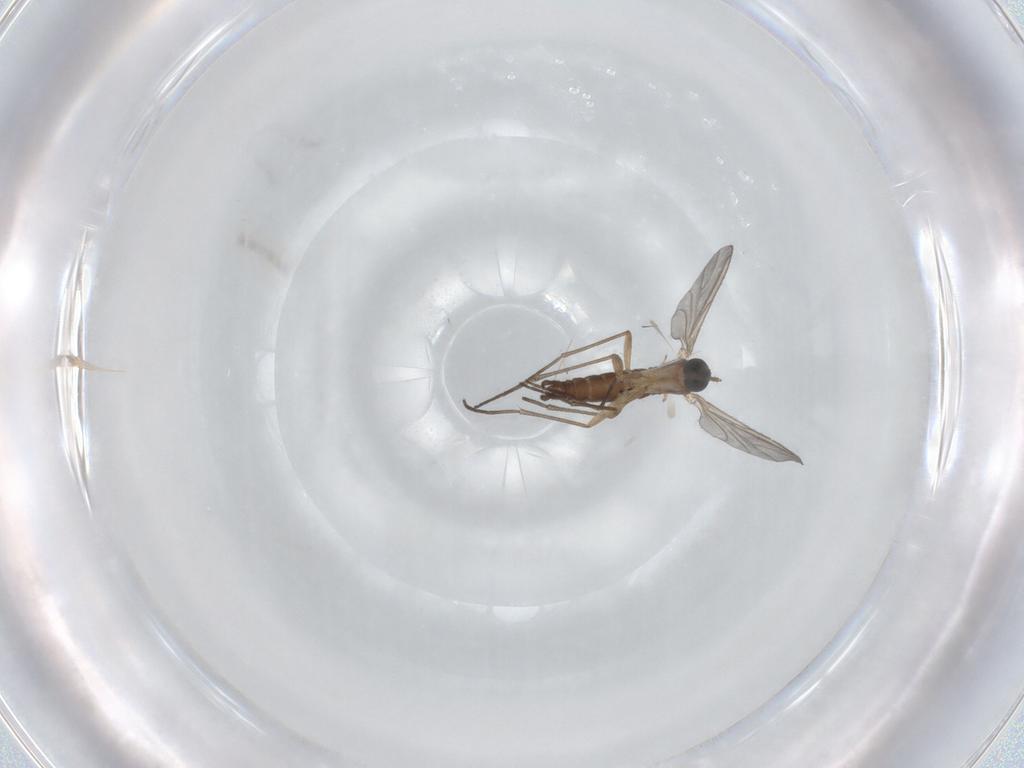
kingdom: Animalia
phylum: Arthropoda
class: Insecta
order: Diptera
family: Sciaridae
